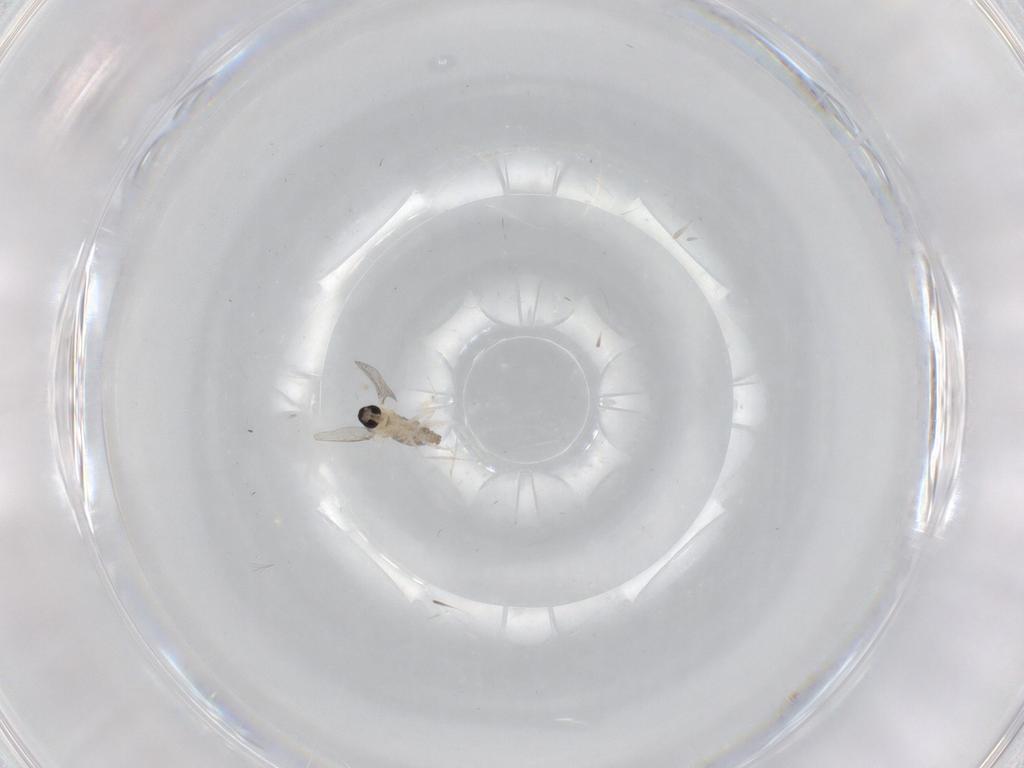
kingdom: Animalia
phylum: Arthropoda
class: Insecta
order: Diptera
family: Cecidomyiidae
